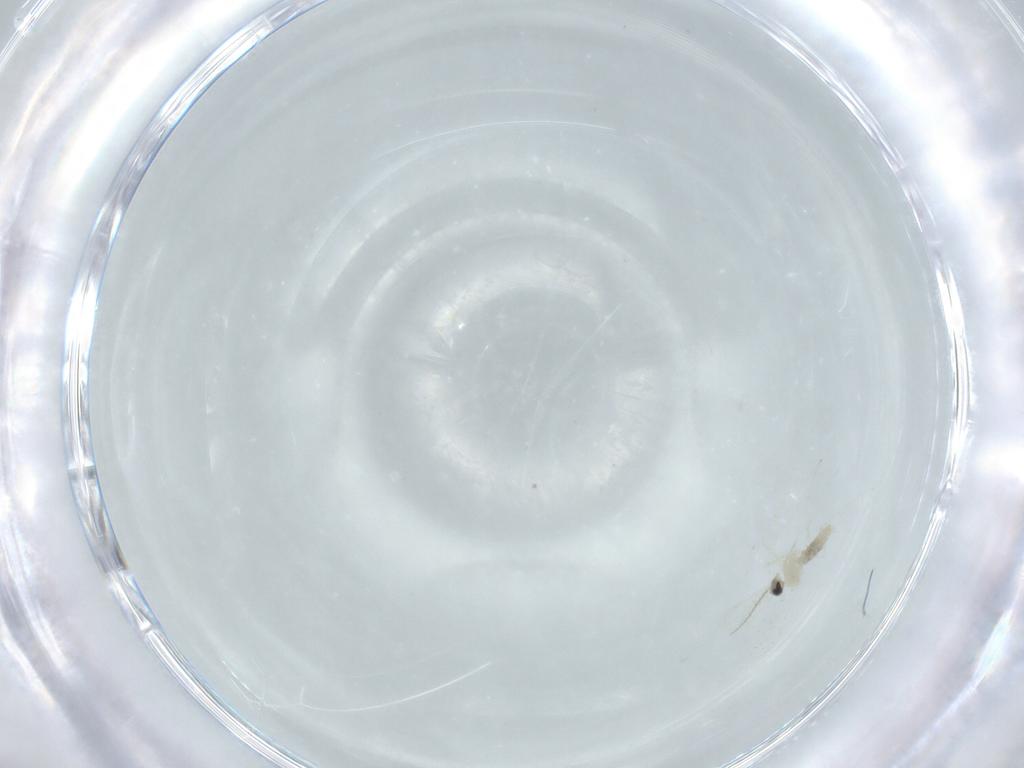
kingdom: Animalia
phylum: Arthropoda
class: Insecta
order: Diptera
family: Cecidomyiidae
